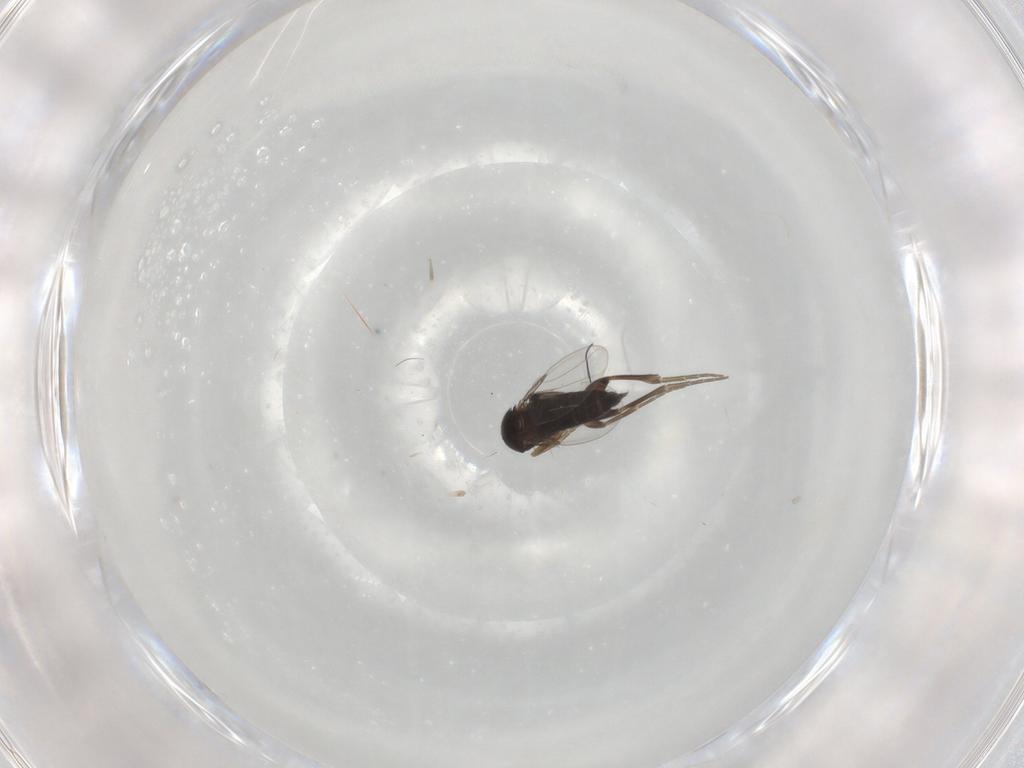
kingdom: Animalia
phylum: Arthropoda
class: Insecta
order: Diptera
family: Phoridae
